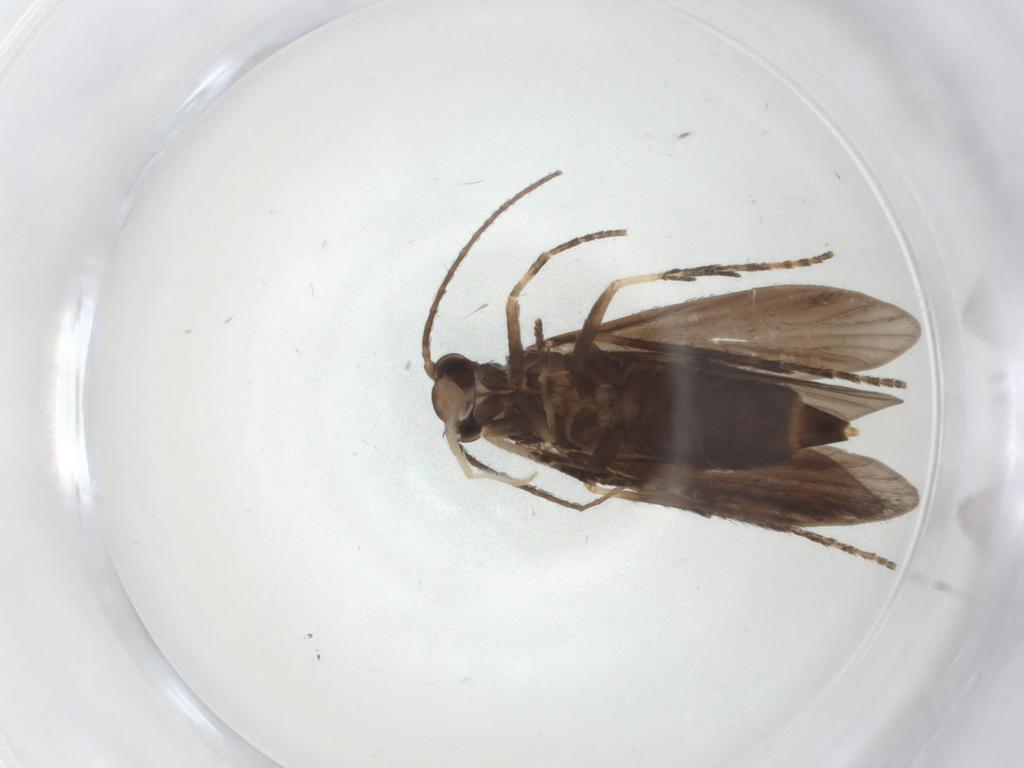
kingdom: Animalia
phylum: Arthropoda
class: Insecta
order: Trichoptera
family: Xiphocentronidae
